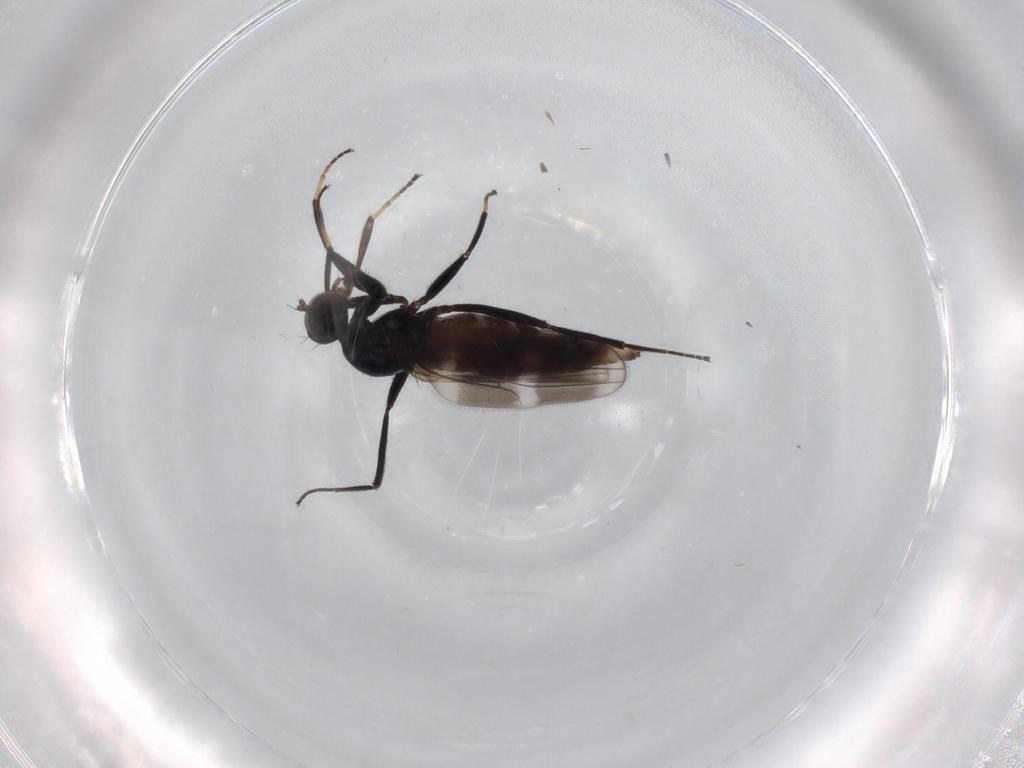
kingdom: Animalia
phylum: Arthropoda
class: Insecta
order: Diptera
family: Hybotidae
